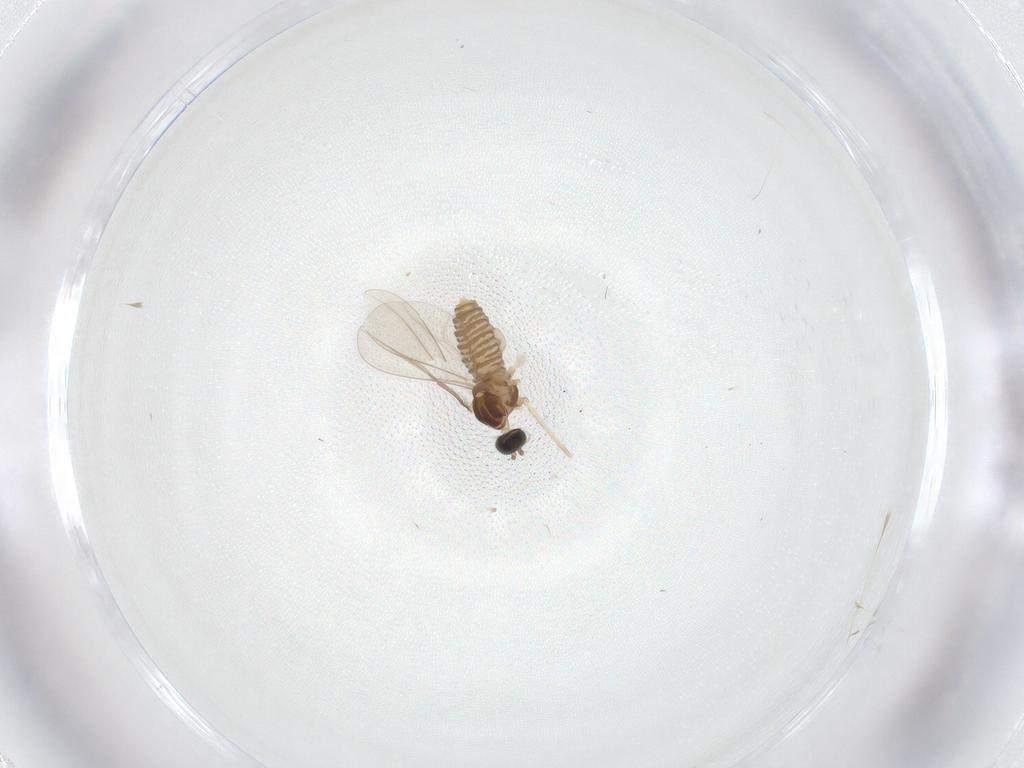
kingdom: Animalia
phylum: Arthropoda
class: Insecta
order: Diptera
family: Cecidomyiidae
